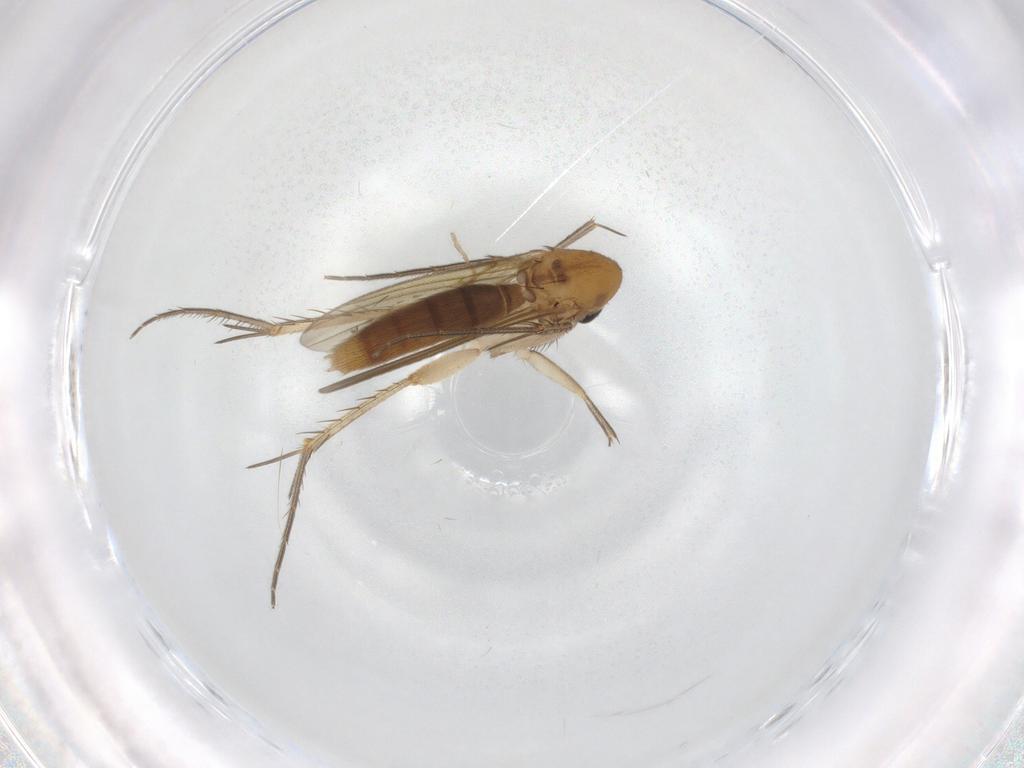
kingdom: Animalia
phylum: Arthropoda
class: Insecta
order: Diptera
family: Mycetophilidae
